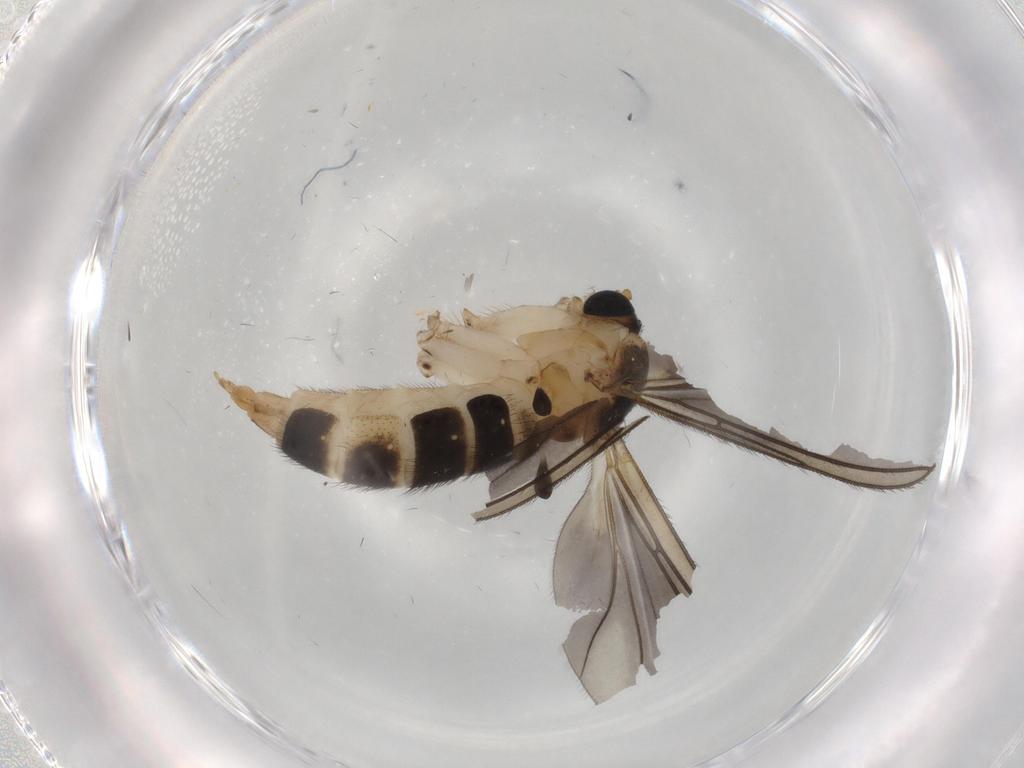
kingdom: Animalia
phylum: Arthropoda
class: Insecta
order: Diptera
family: Sciaridae
